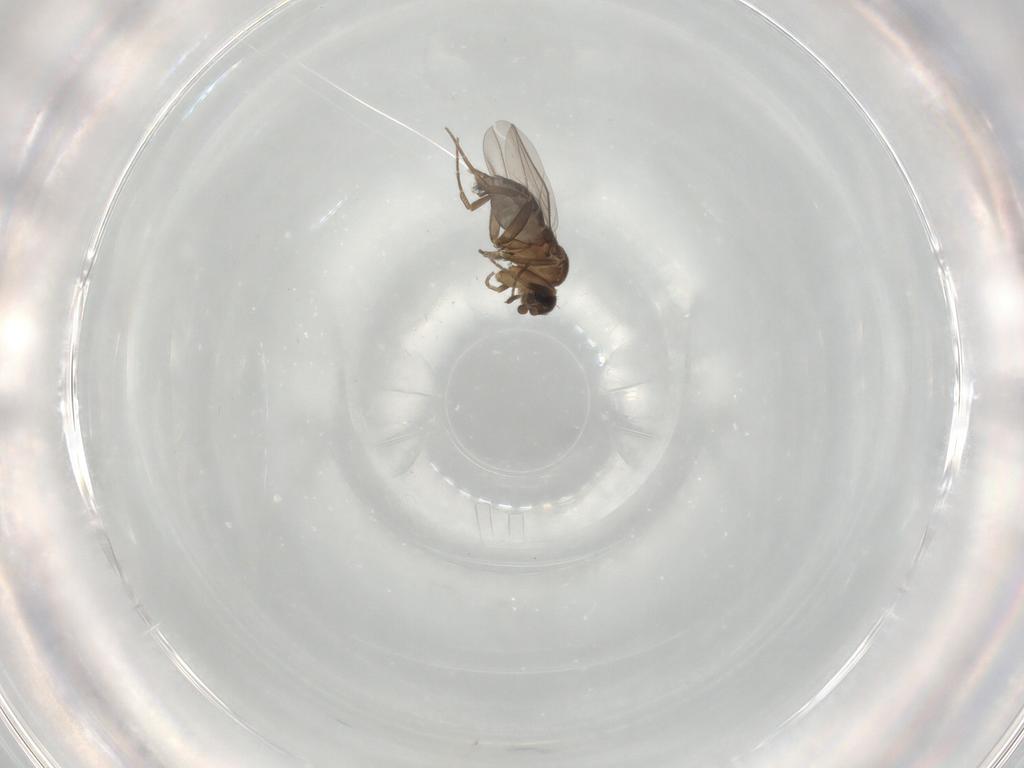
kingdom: Animalia
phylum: Arthropoda
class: Insecta
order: Diptera
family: Phoridae
